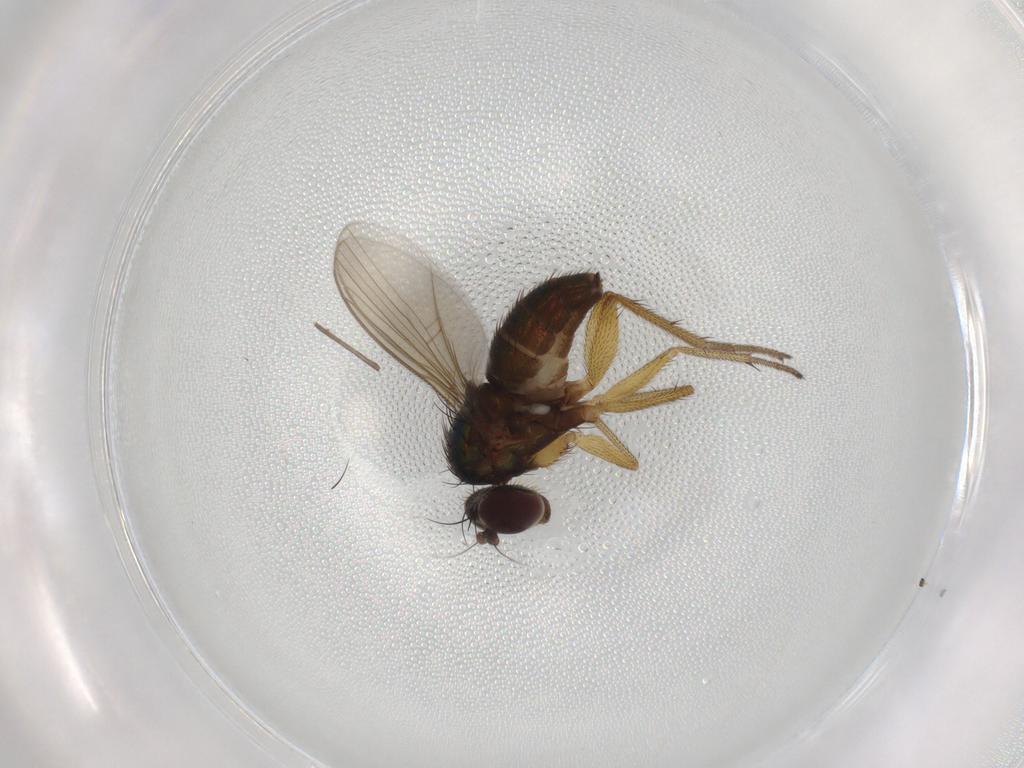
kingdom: Animalia
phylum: Arthropoda
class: Insecta
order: Diptera
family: Dolichopodidae
